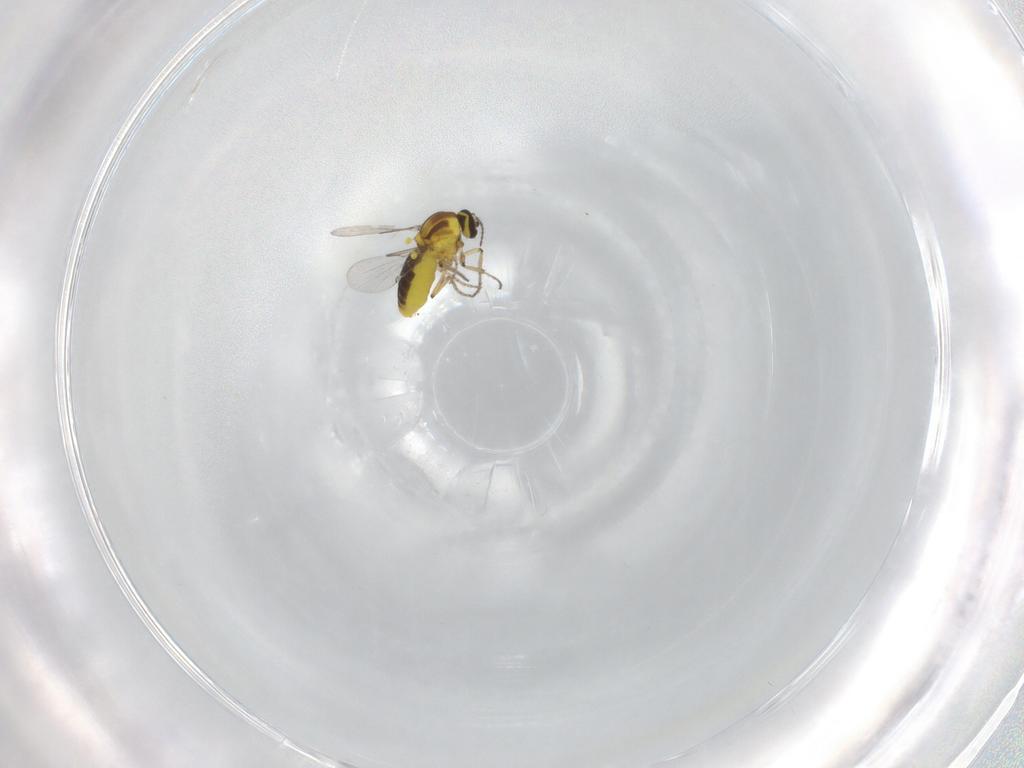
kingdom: Animalia
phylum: Arthropoda
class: Insecta
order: Diptera
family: Ceratopogonidae
